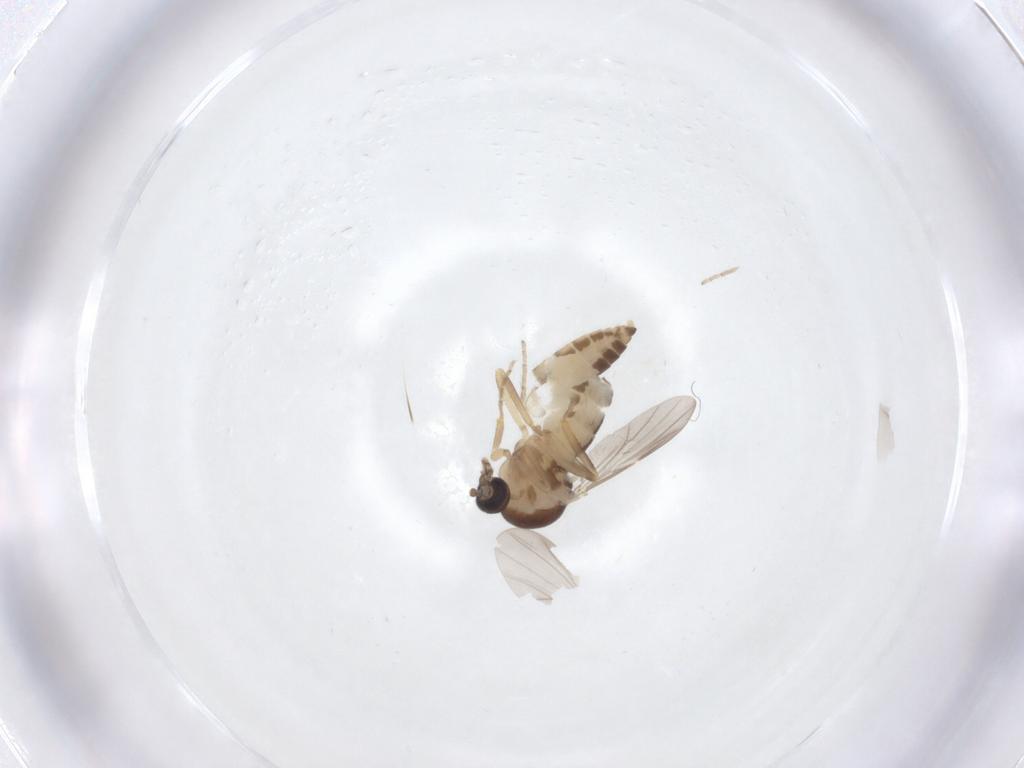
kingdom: Animalia
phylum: Arthropoda
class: Insecta
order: Diptera
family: Ceratopogonidae
